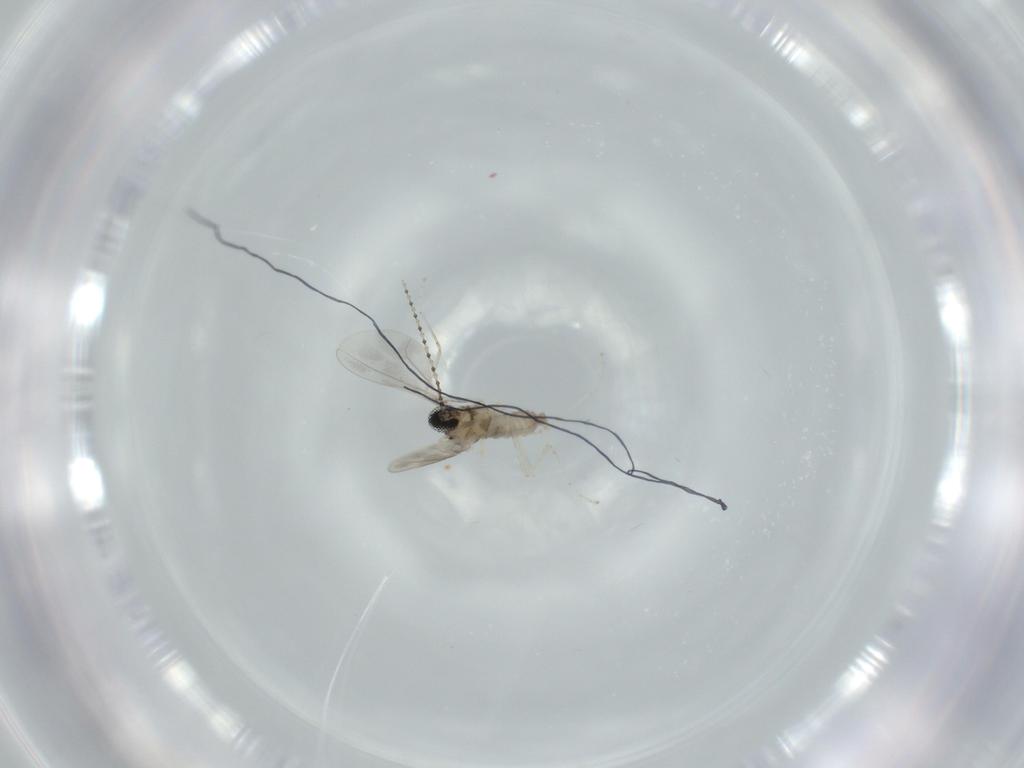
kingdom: Animalia
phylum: Arthropoda
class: Insecta
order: Diptera
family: Cecidomyiidae
